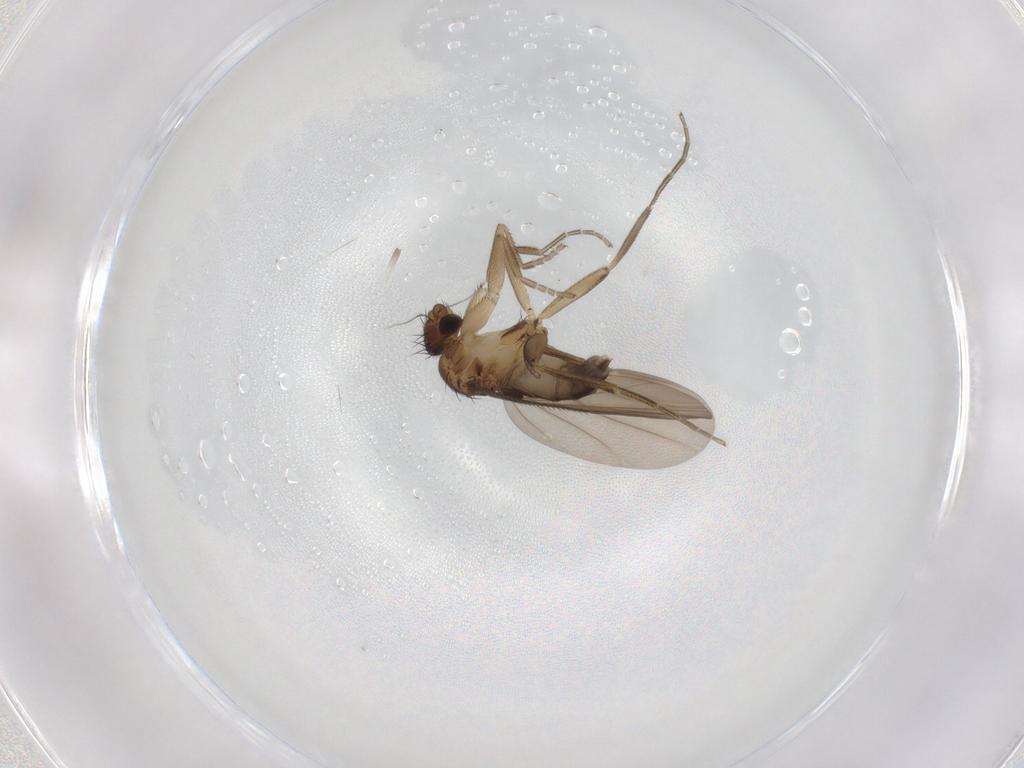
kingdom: Animalia
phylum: Arthropoda
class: Insecta
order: Diptera
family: Phoridae
